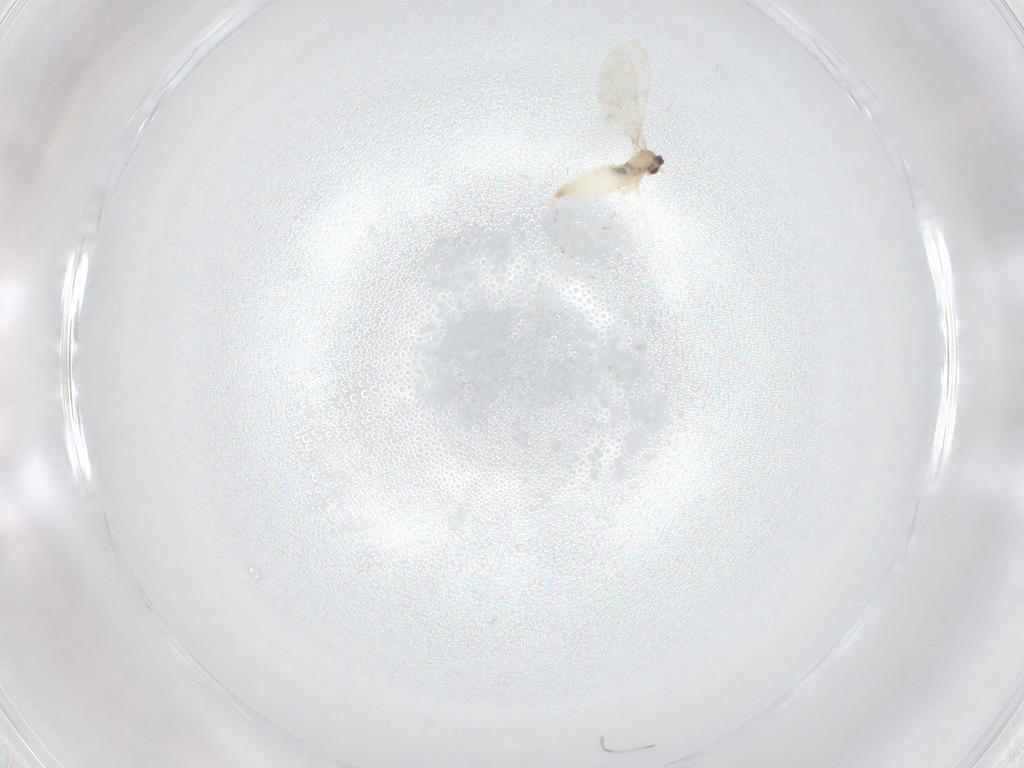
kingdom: Animalia
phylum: Arthropoda
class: Insecta
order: Diptera
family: Cecidomyiidae
